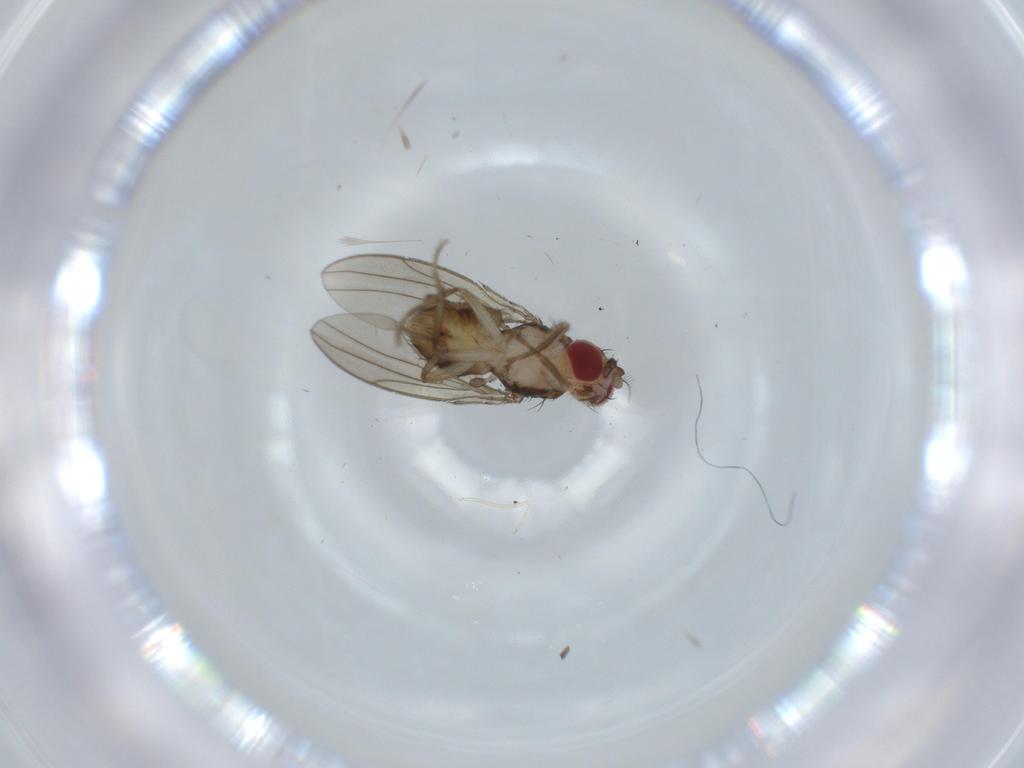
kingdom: Animalia
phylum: Arthropoda
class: Insecta
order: Diptera
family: Drosophilidae
